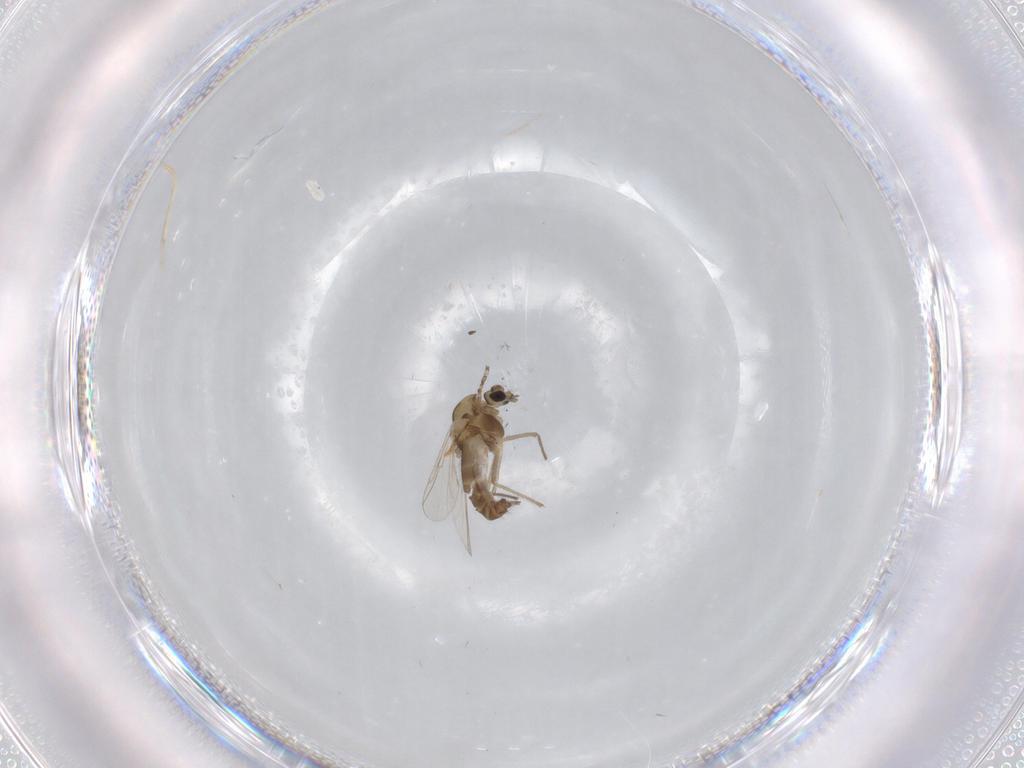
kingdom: Animalia
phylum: Arthropoda
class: Insecta
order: Diptera
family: Chironomidae
